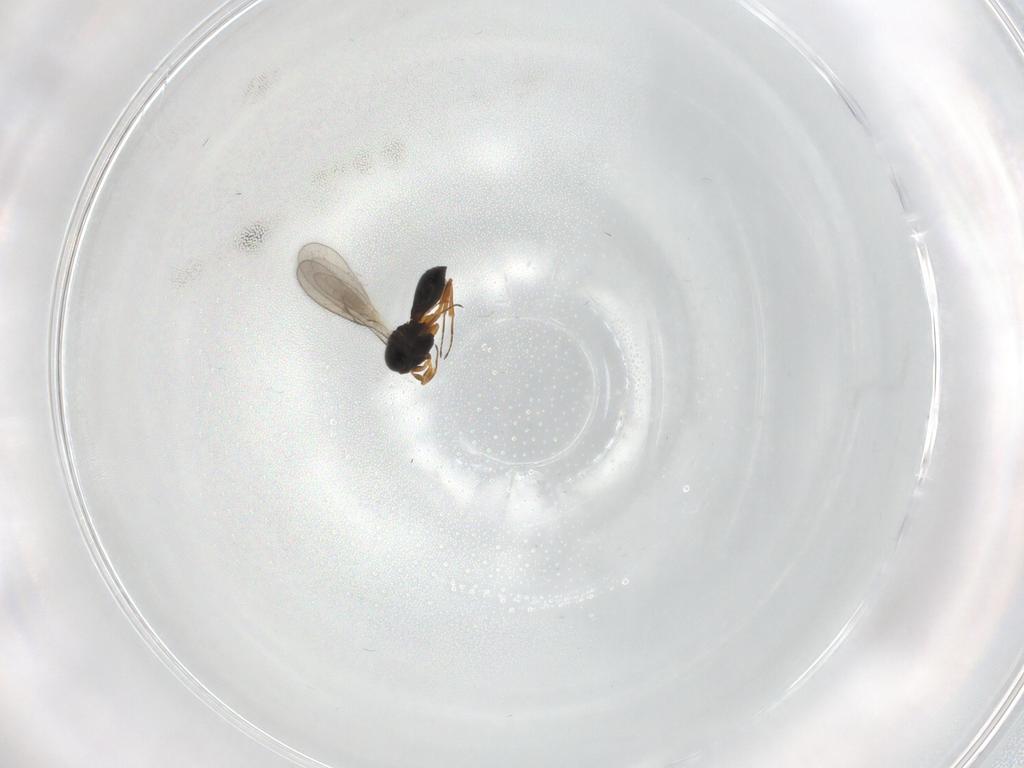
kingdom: Animalia
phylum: Arthropoda
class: Insecta
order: Hymenoptera
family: Scelionidae
